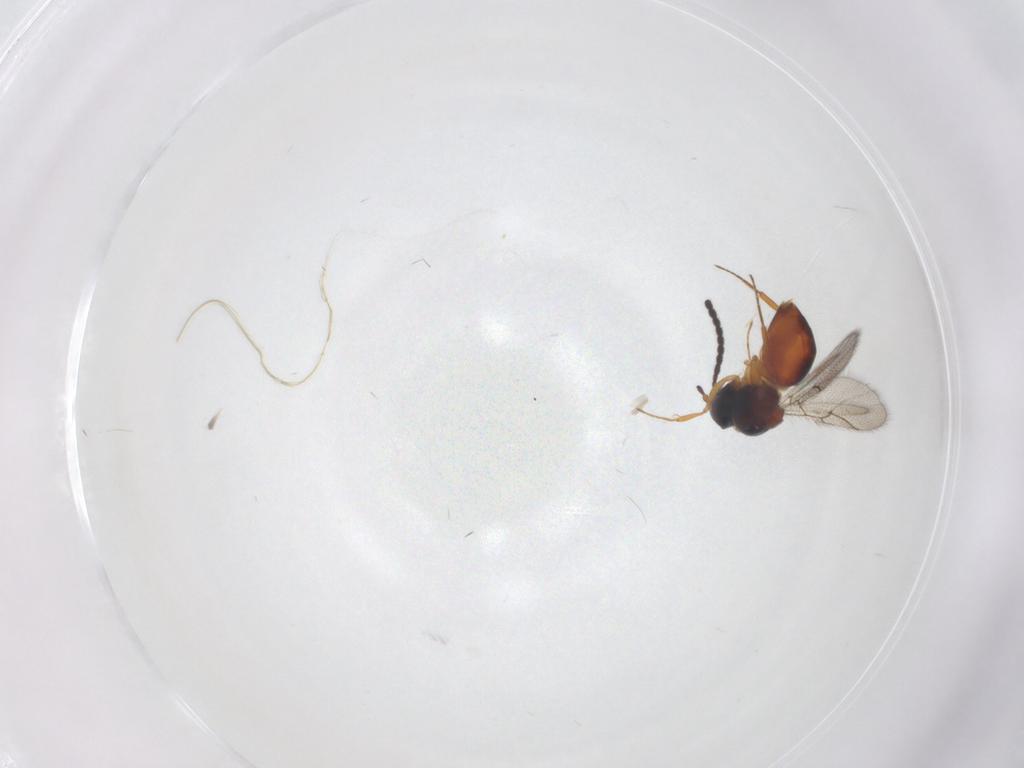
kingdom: Animalia
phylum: Arthropoda
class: Insecta
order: Hymenoptera
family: Figitidae
